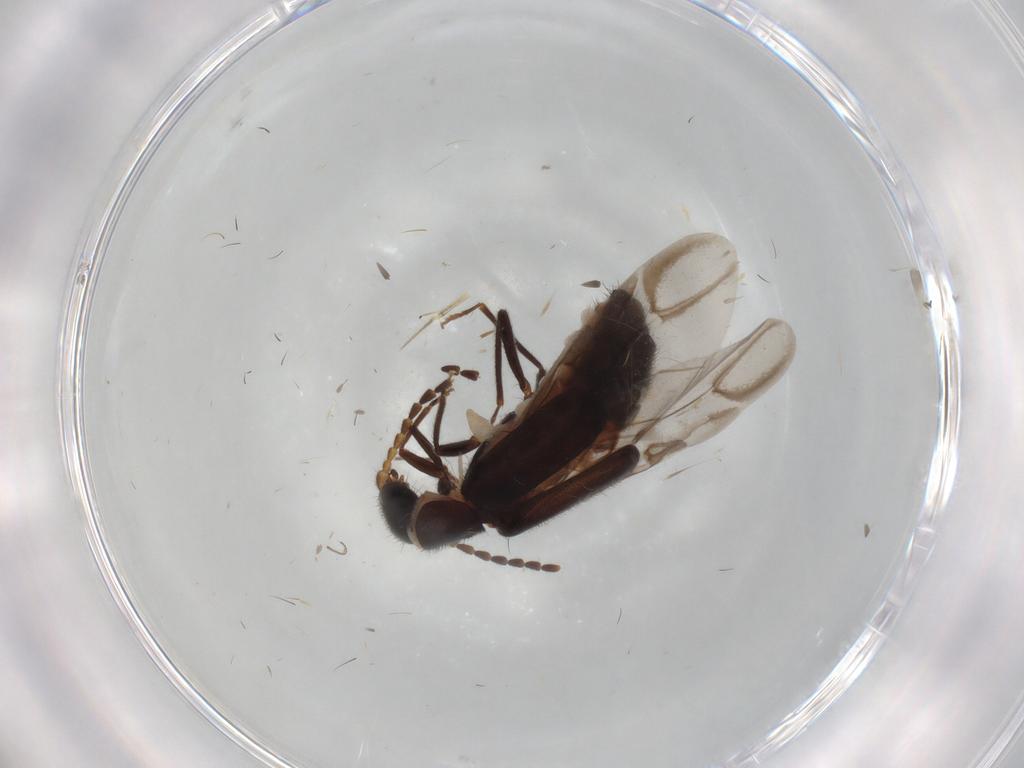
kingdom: Animalia
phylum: Arthropoda
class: Insecta
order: Coleoptera
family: Melyridae
